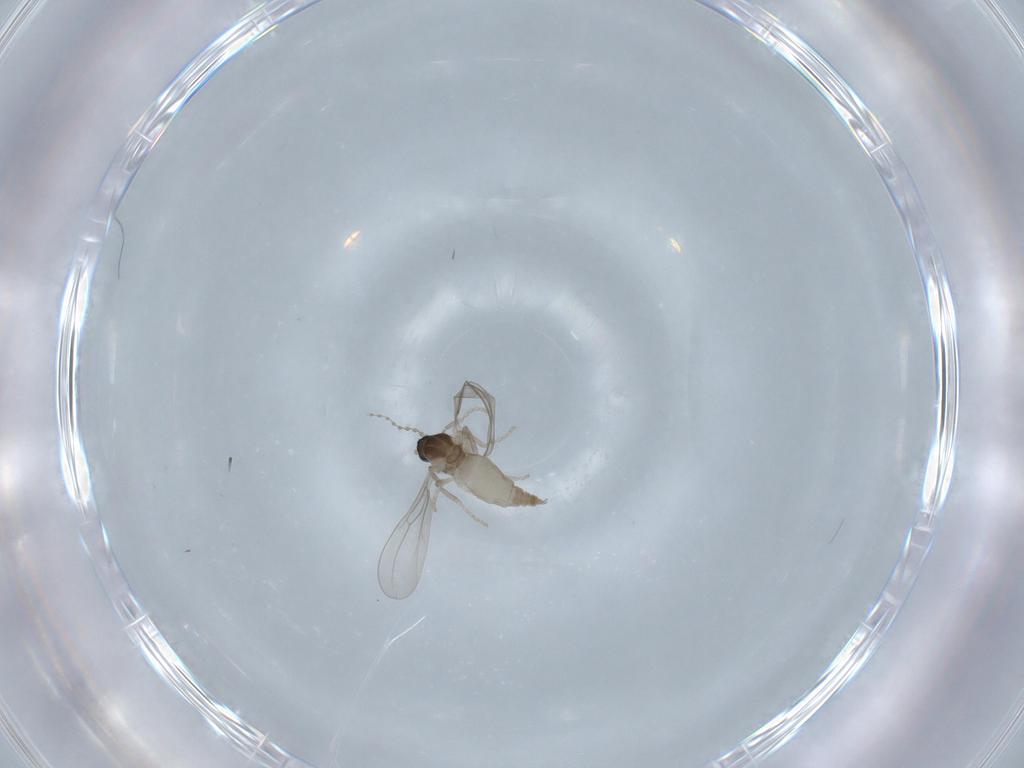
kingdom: Animalia
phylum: Arthropoda
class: Insecta
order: Diptera
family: Cecidomyiidae
